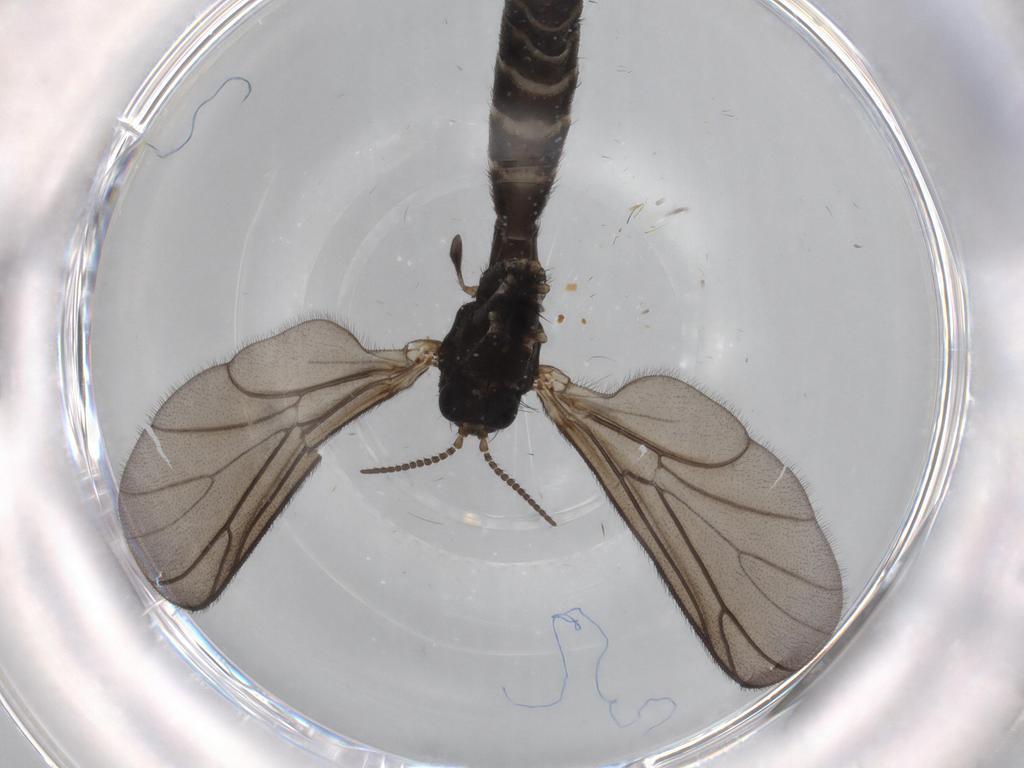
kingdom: Animalia
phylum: Arthropoda
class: Insecta
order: Diptera
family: Ditomyiidae
